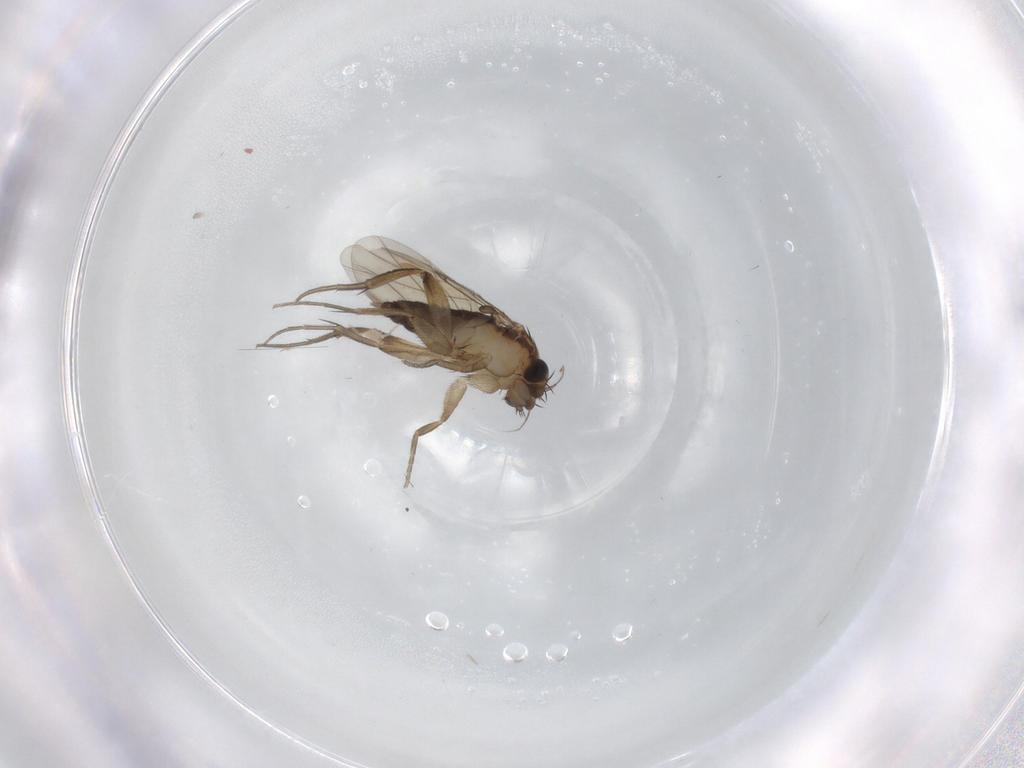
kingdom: Animalia
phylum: Arthropoda
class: Insecta
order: Diptera
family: Phoridae
